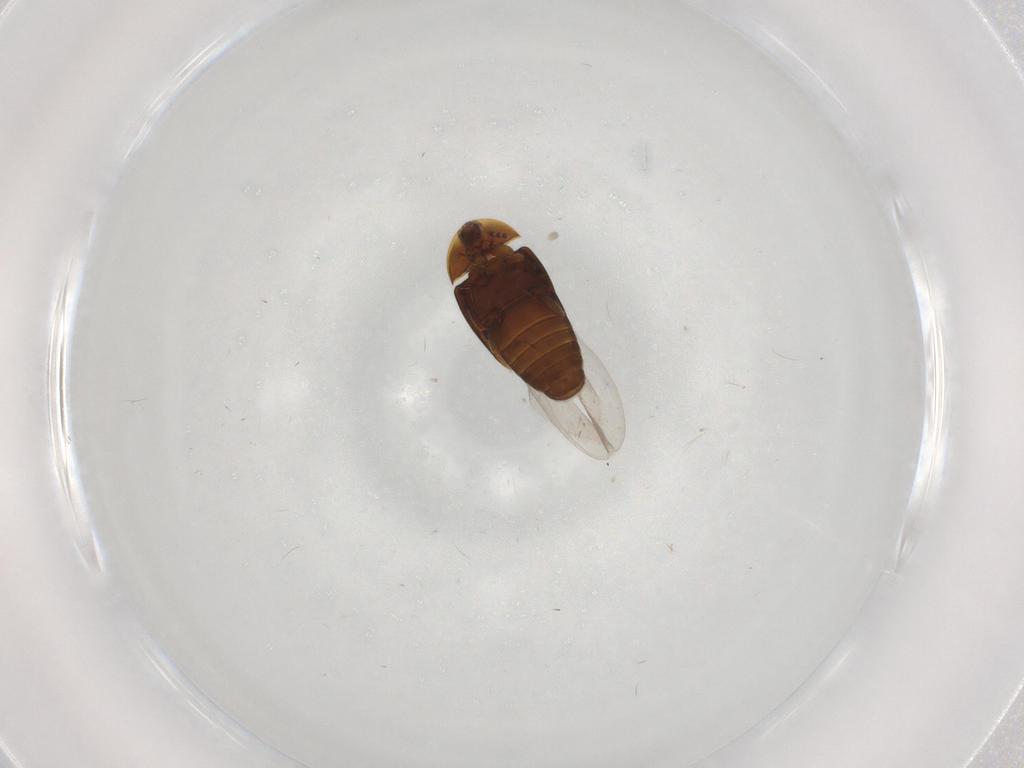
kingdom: Animalia
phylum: Arthropoda
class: Insecta
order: Coleoptera
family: Corylophidae
